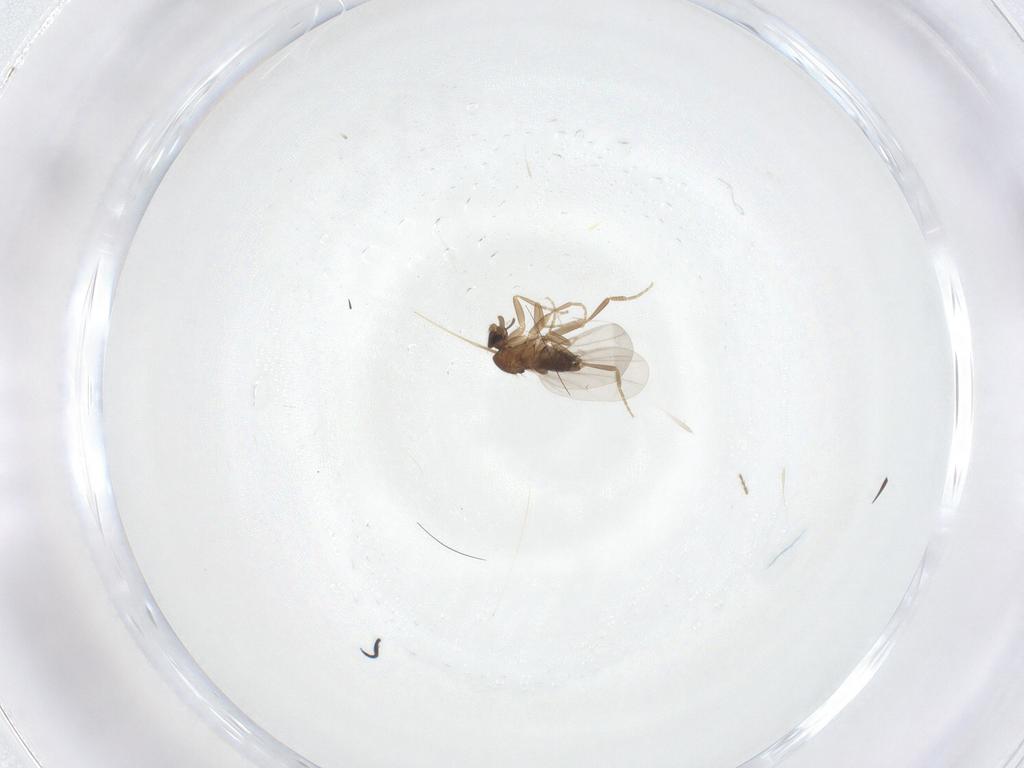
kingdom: Animalia
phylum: Arthropoda
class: Insecta
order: Diptera
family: Phoridae
